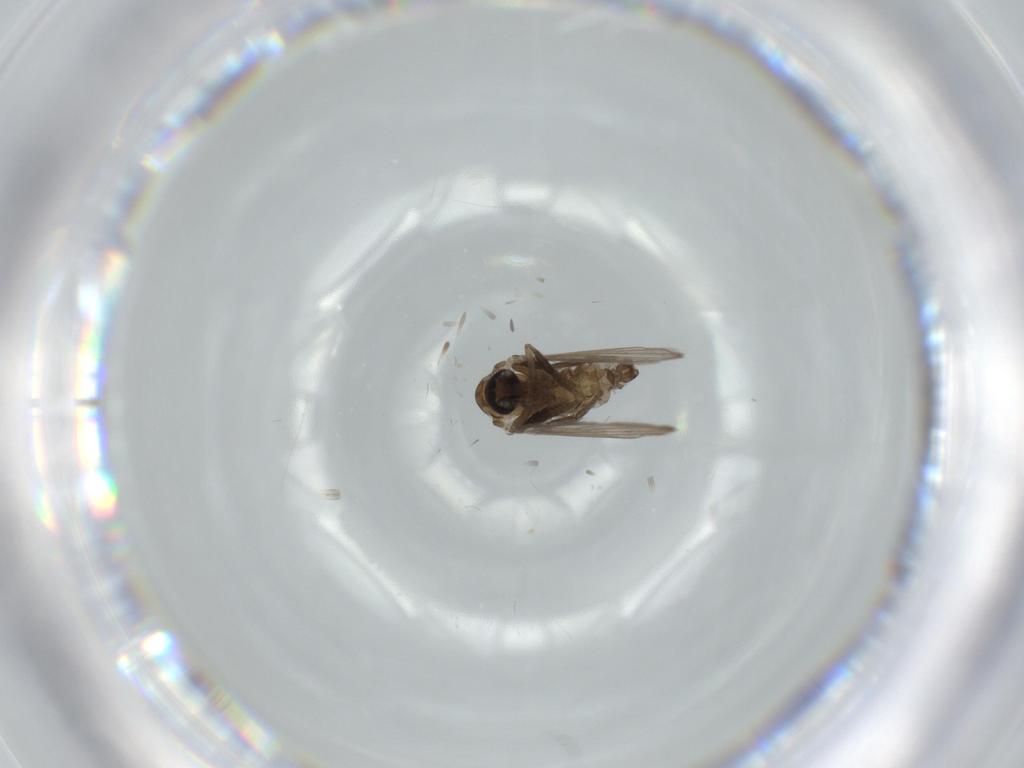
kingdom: Animalia
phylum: Arthropoda
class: Insecta
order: Diptera
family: Psychodidae
